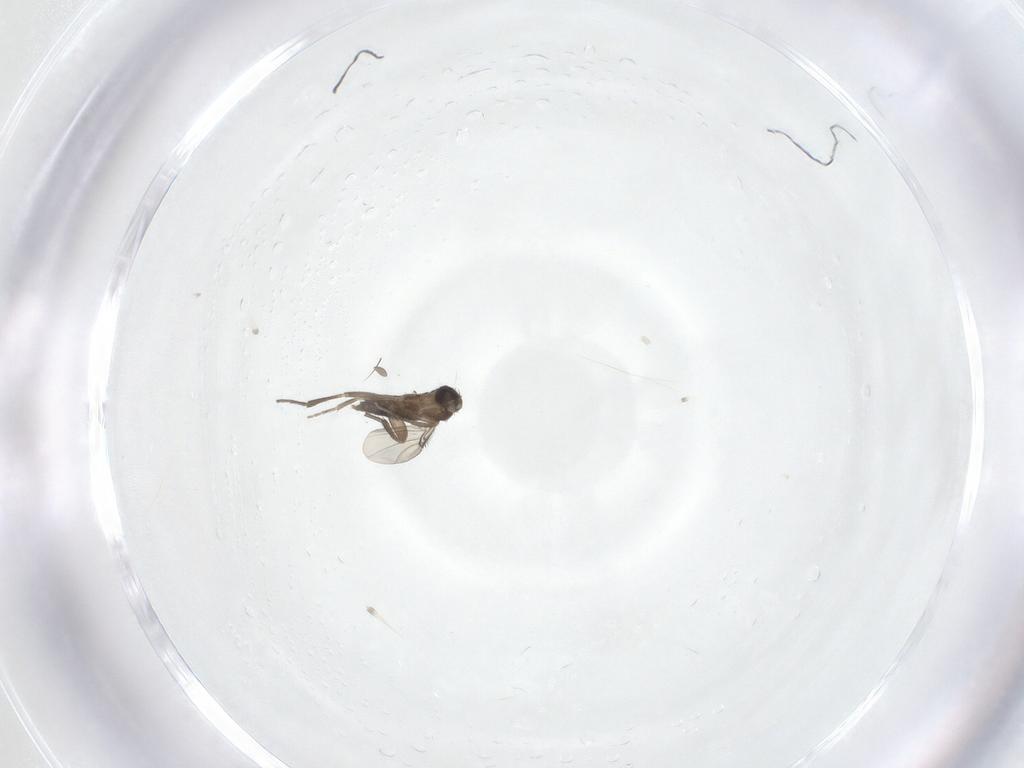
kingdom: Animalia
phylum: Arthropoda
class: Insecta
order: Diptera
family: Phoridae
